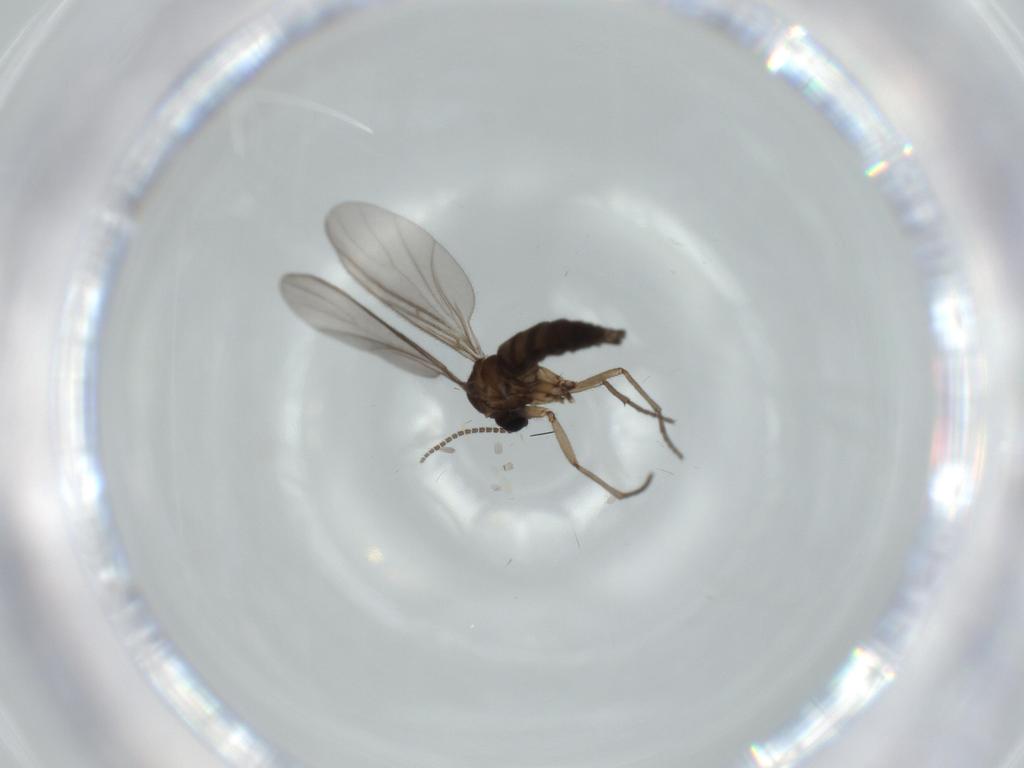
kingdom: Animalia
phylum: Arthropoda
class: Insecta
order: Diptera
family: Sciaridae
